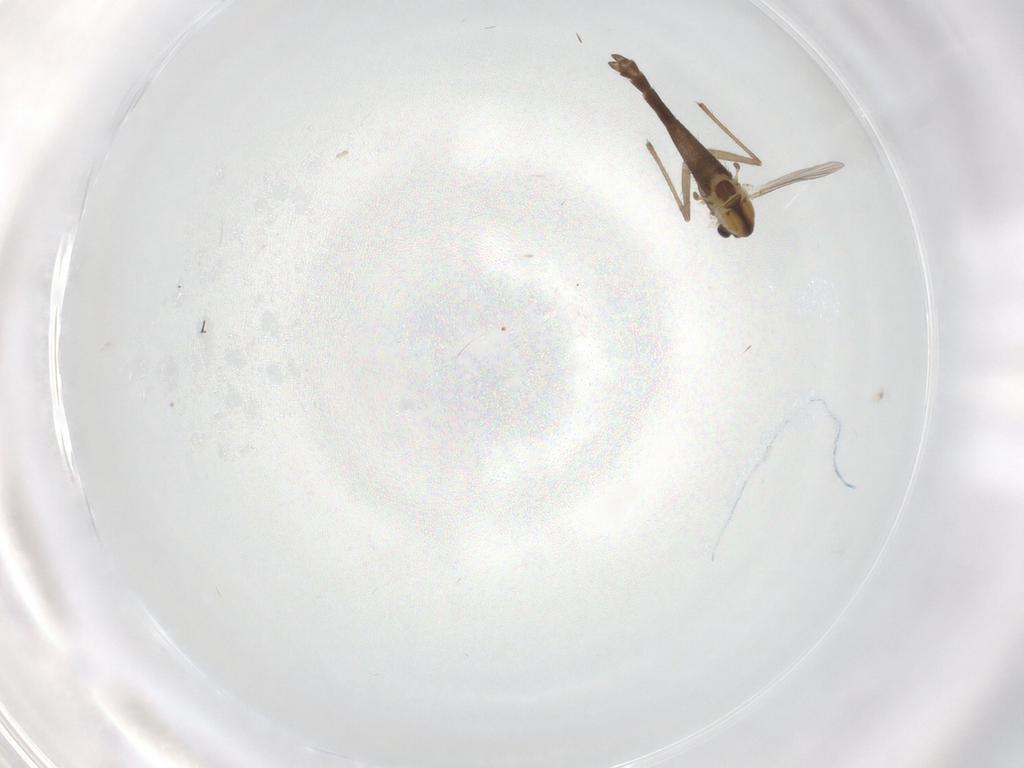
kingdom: Animalia
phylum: Arthropoda
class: Insecta
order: Diptera
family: Chironomidae
